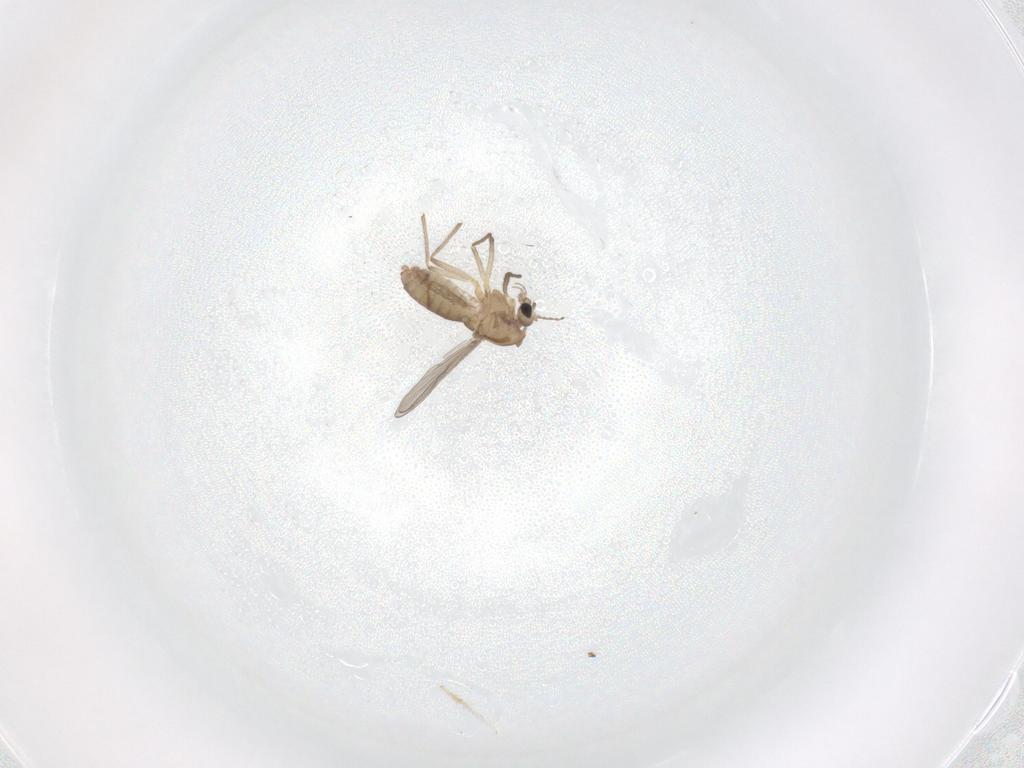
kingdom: Animalia
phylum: Arthropoda
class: Insecta
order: Diptera
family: Chironomidae
